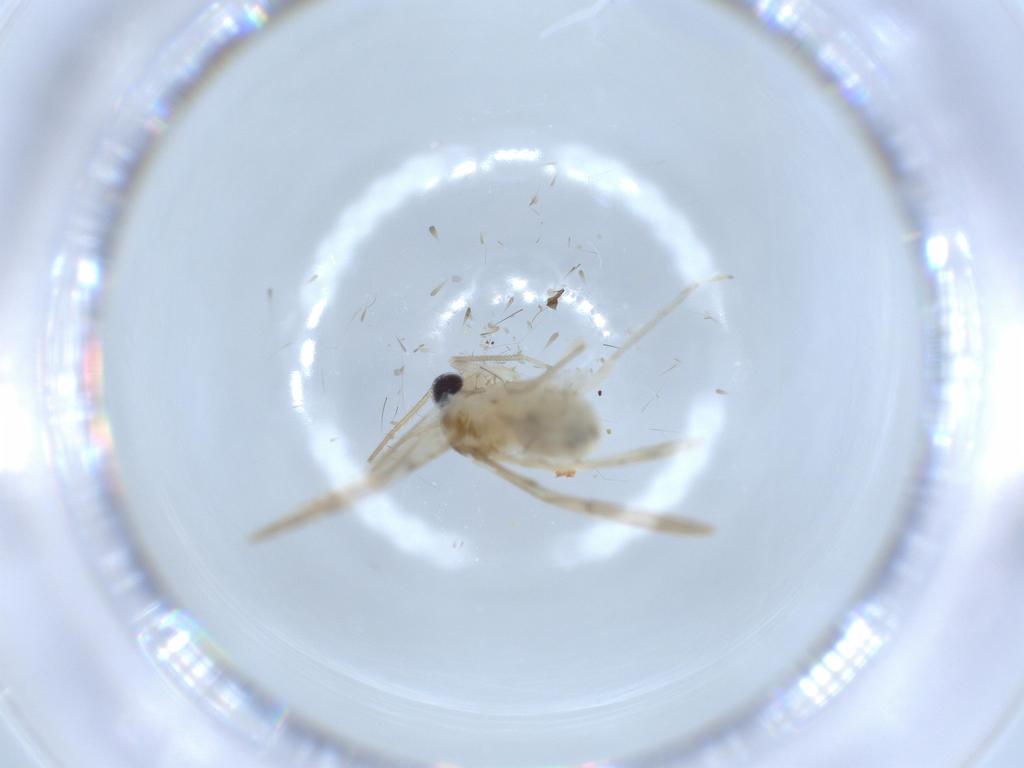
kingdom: Animalia
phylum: Arthropoda
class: Insecta
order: Psocodea
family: Caeciliusidae
